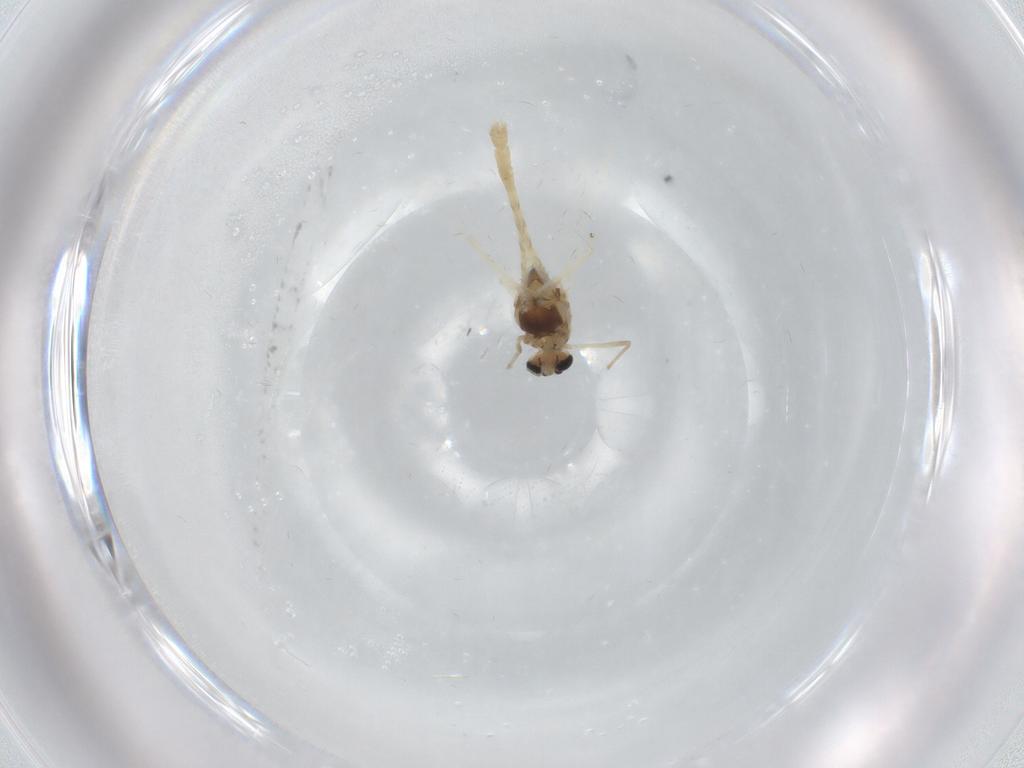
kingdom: Animalia
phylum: Arthropoda
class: Insecta
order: Diptera
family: Chironomidae
